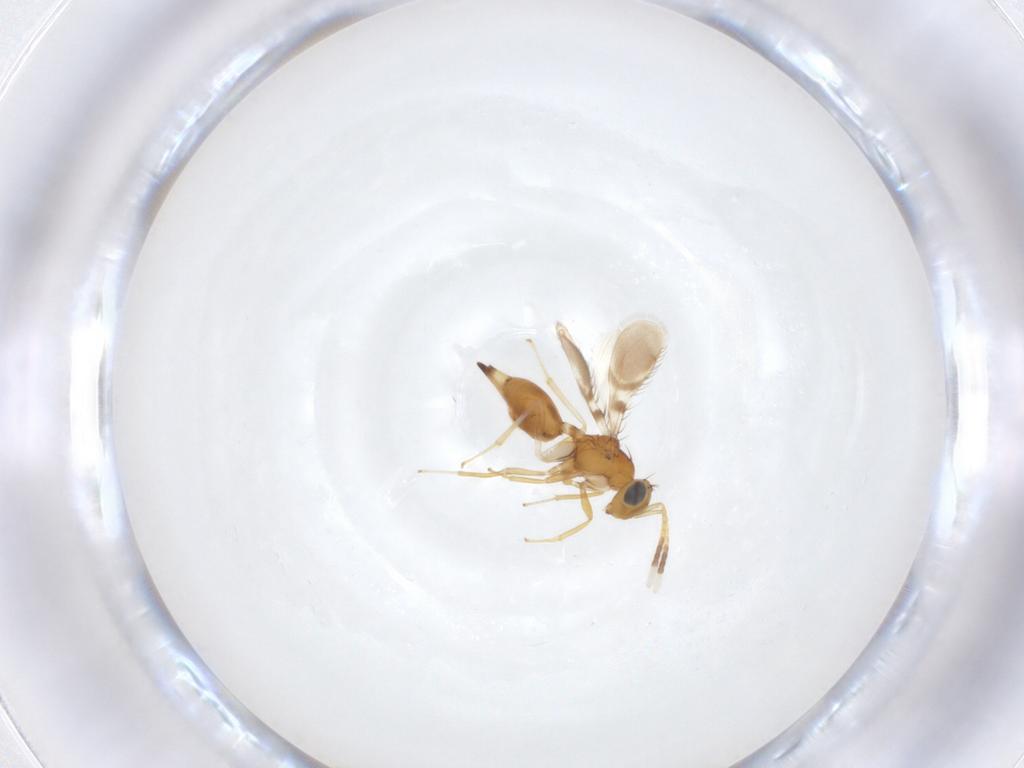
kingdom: Animalia
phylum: Arthropoda
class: Insecta
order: Hymenoptera
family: Diparidae
